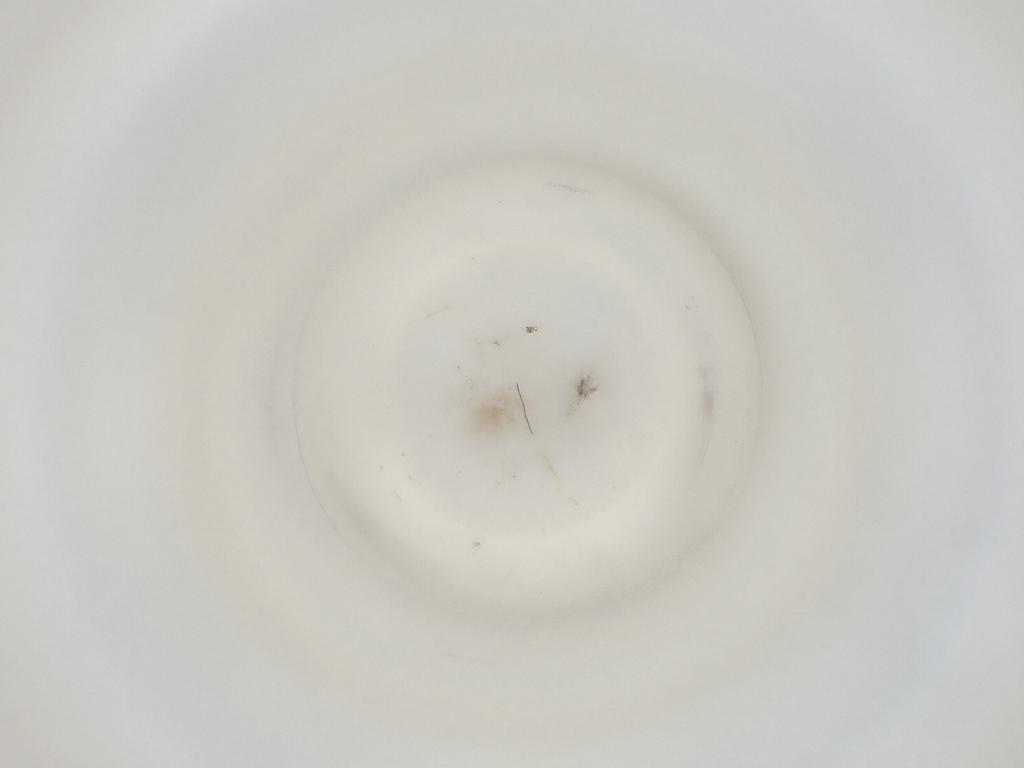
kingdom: Animalia
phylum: Arthropoda
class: Insecta
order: Diptera
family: Cecidomyiidae
